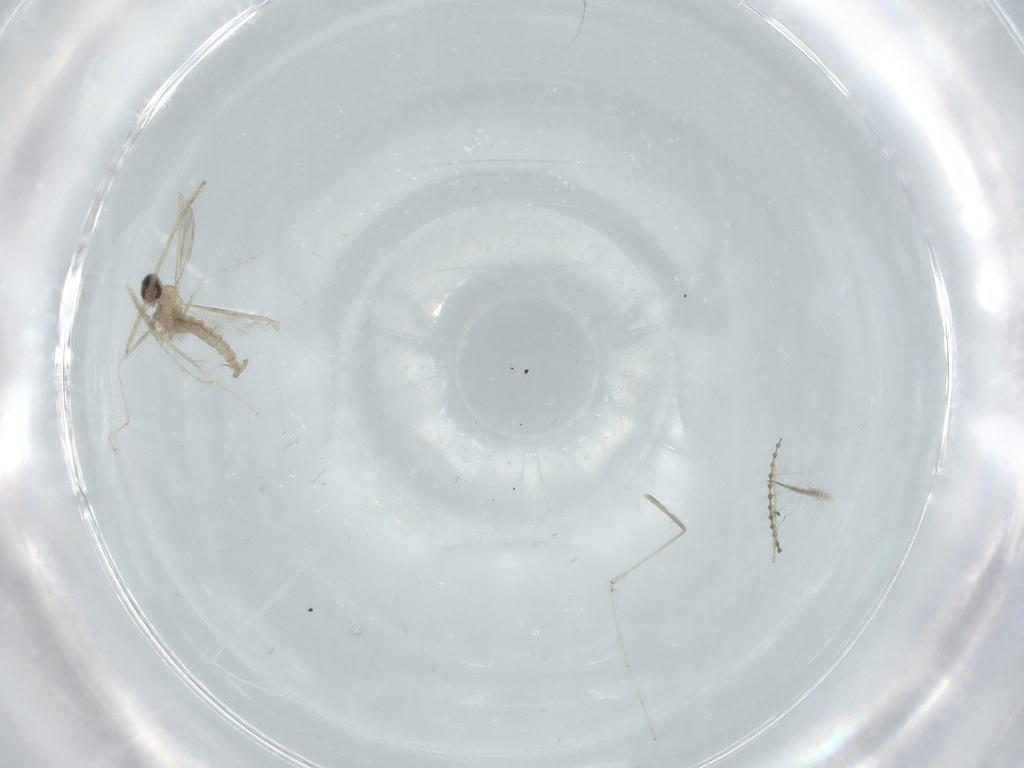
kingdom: Animalia
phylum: Arthropoda
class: Insecta
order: Diptera
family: Cecidomyiidae
